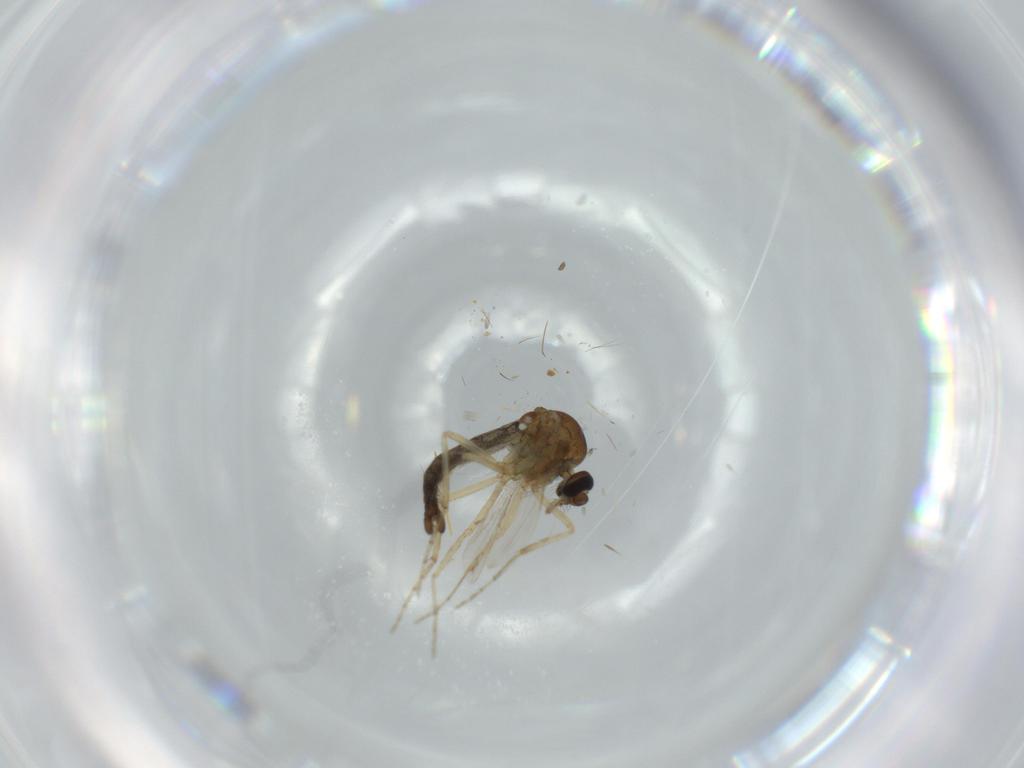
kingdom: Animalia
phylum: Arthropoda
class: Insecta
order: Diptera
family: Ceratopogonidae
